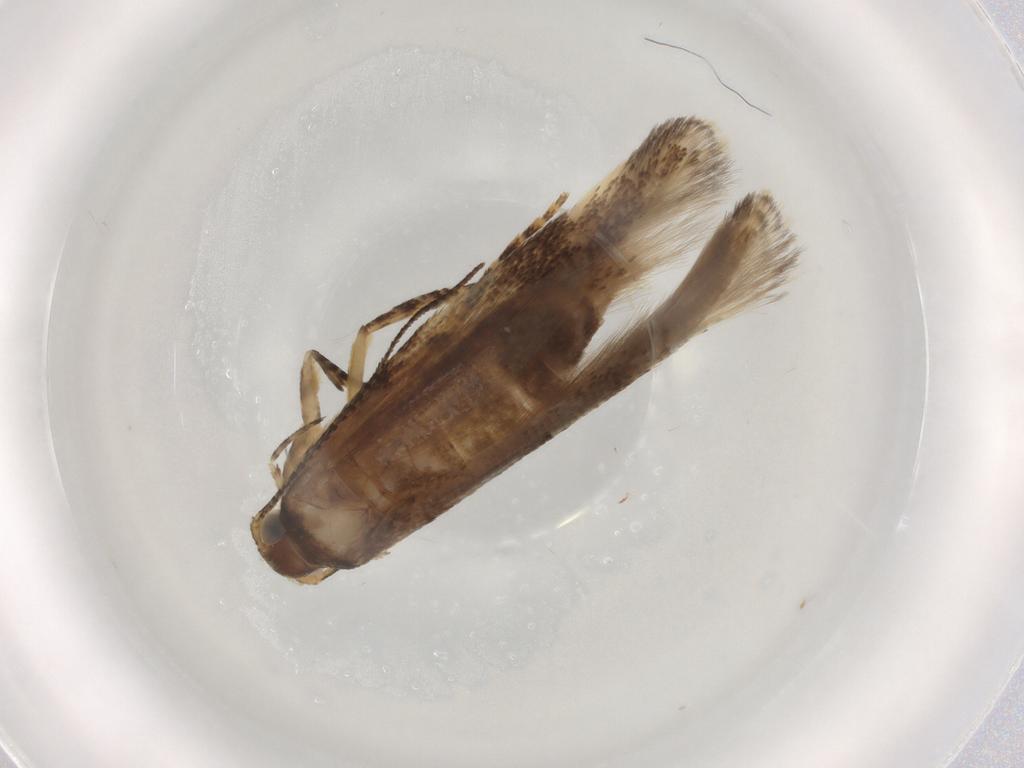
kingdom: Animalia
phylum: Arthropoda
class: Insecta
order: Lepidoptera
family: Gelechiidae
